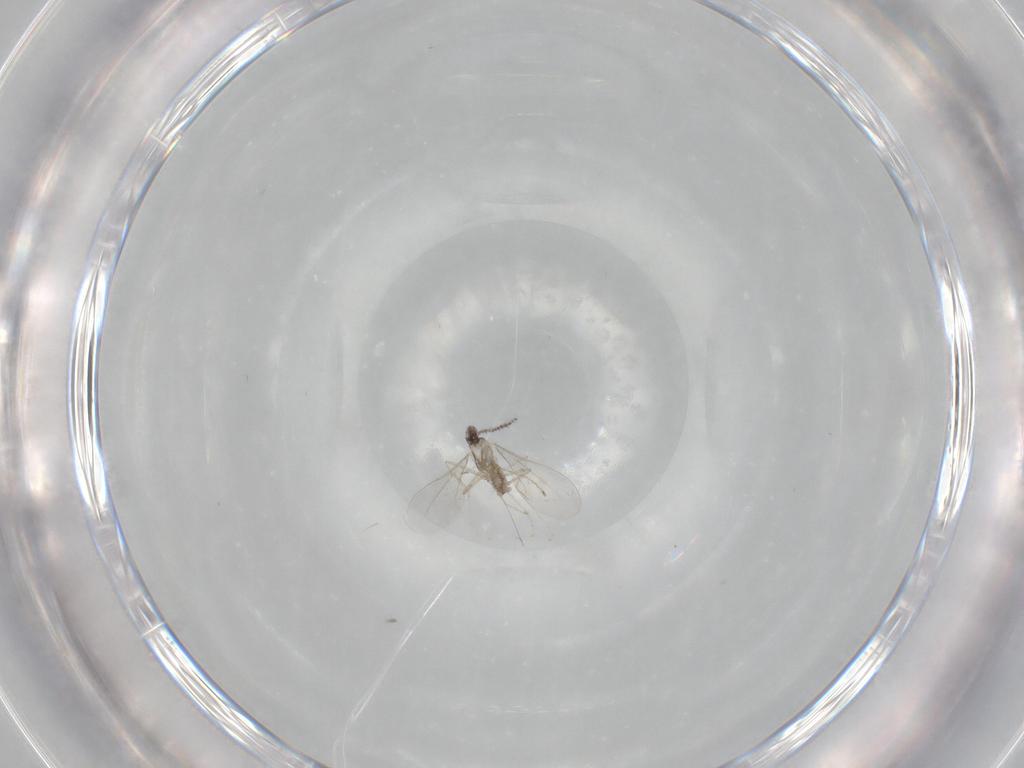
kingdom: Animalia
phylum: Arthropoda
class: Insecta
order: Diptera
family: Cecidomyiidae
